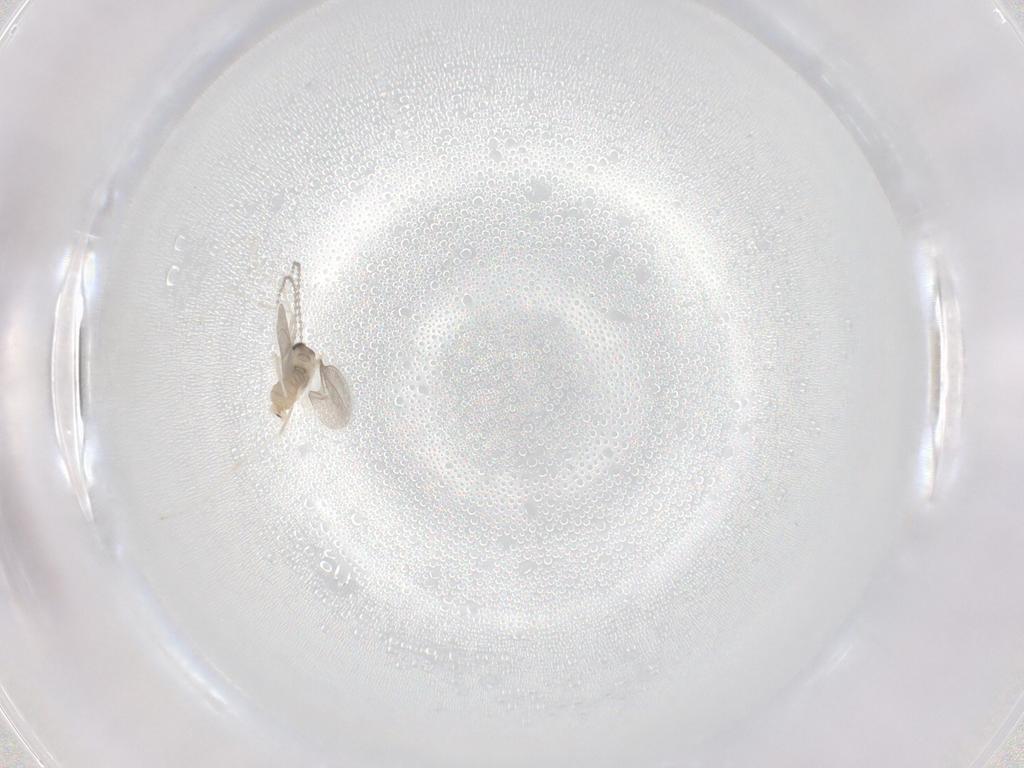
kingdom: Animalia
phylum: Arthropoda
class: Insecta
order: Diptera
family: Cecidomyiidae
